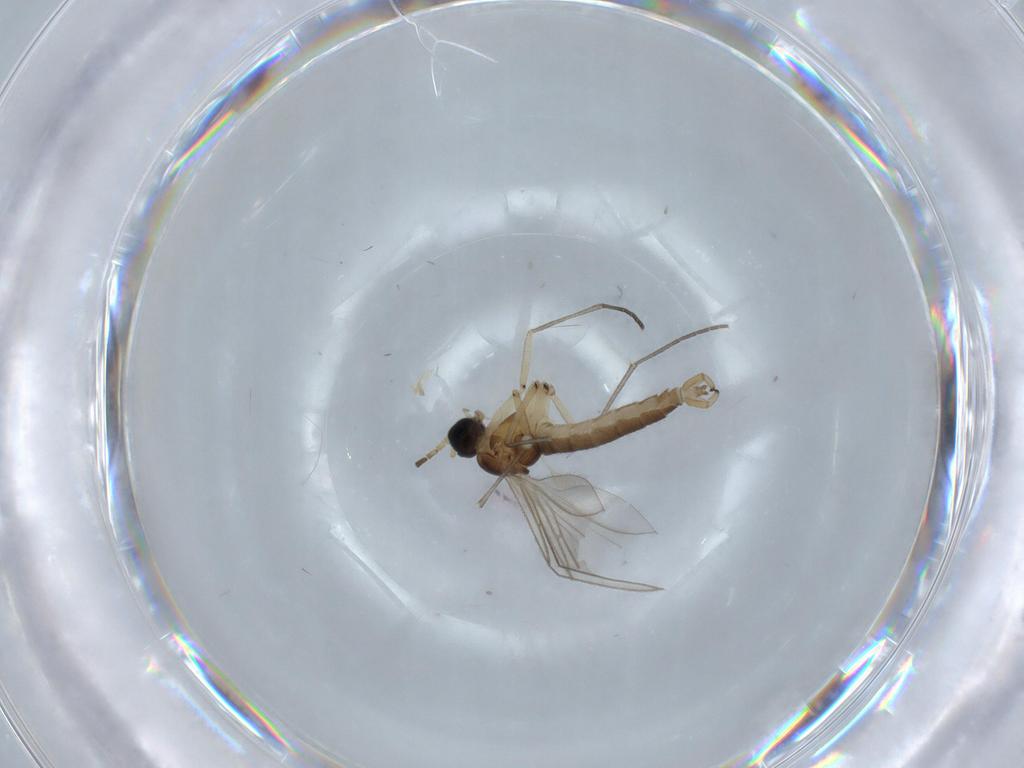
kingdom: Animalia
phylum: Arthropoda
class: Insecta
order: Diptera
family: Sciaridae
